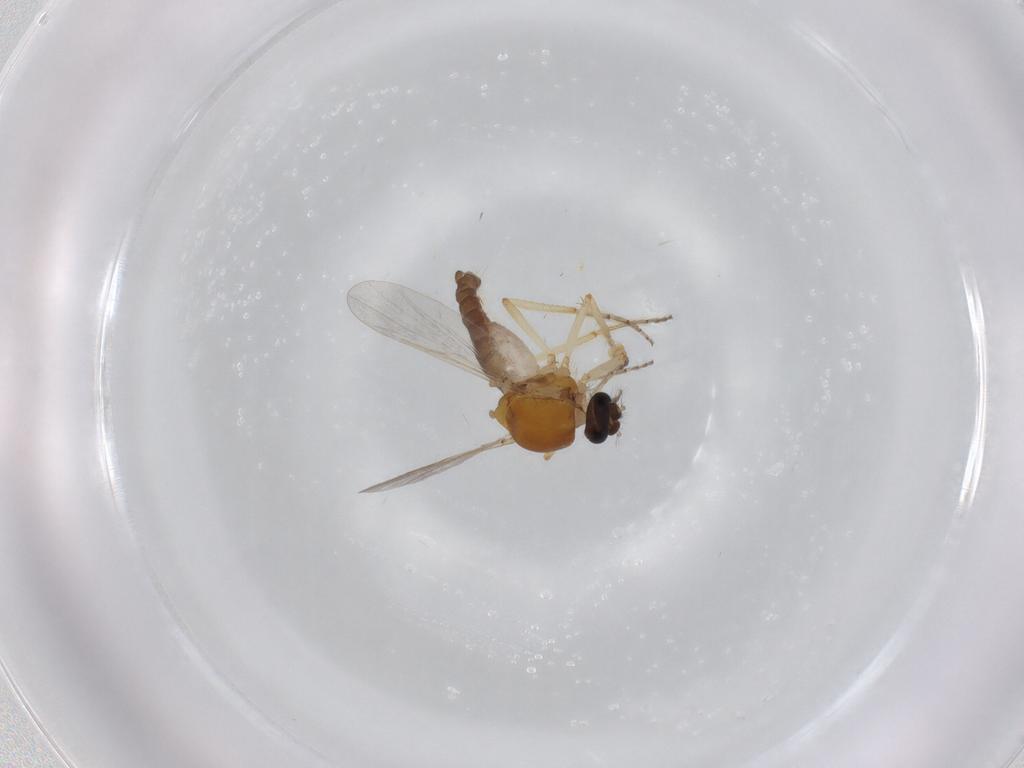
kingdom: Animalia
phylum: Arthropoda
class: Insecta
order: Diptera
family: Ceratopogonidae
